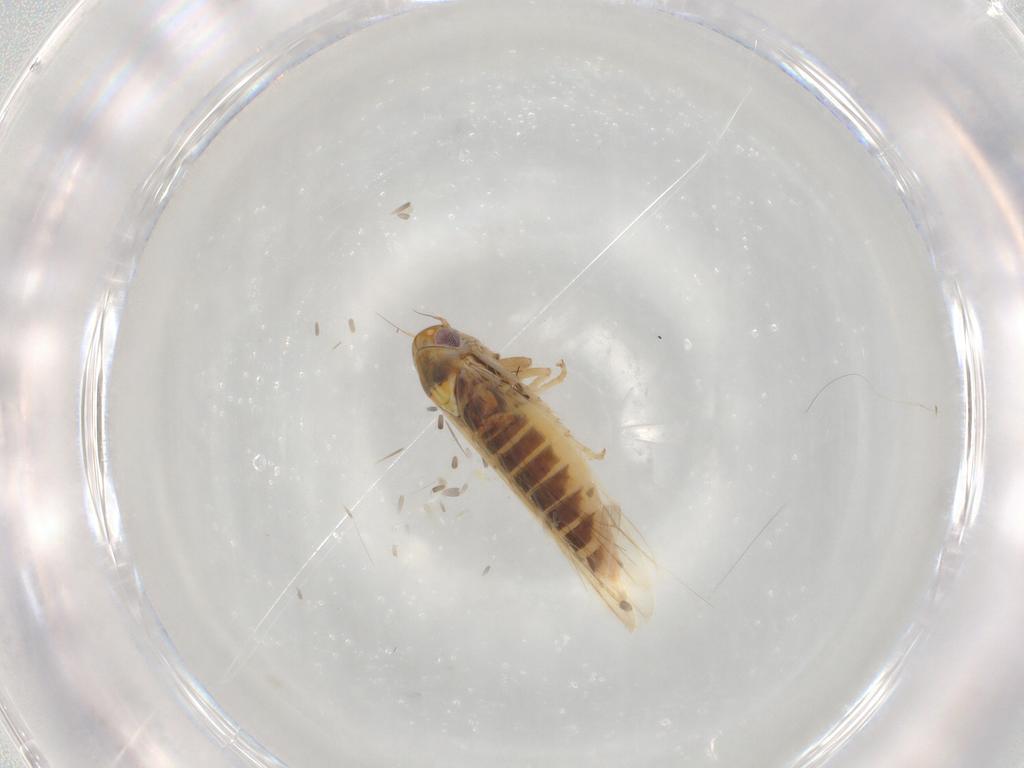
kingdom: Animalia
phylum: Arthropoda
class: Insecta
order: Hemiptera
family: Cicadellidae
